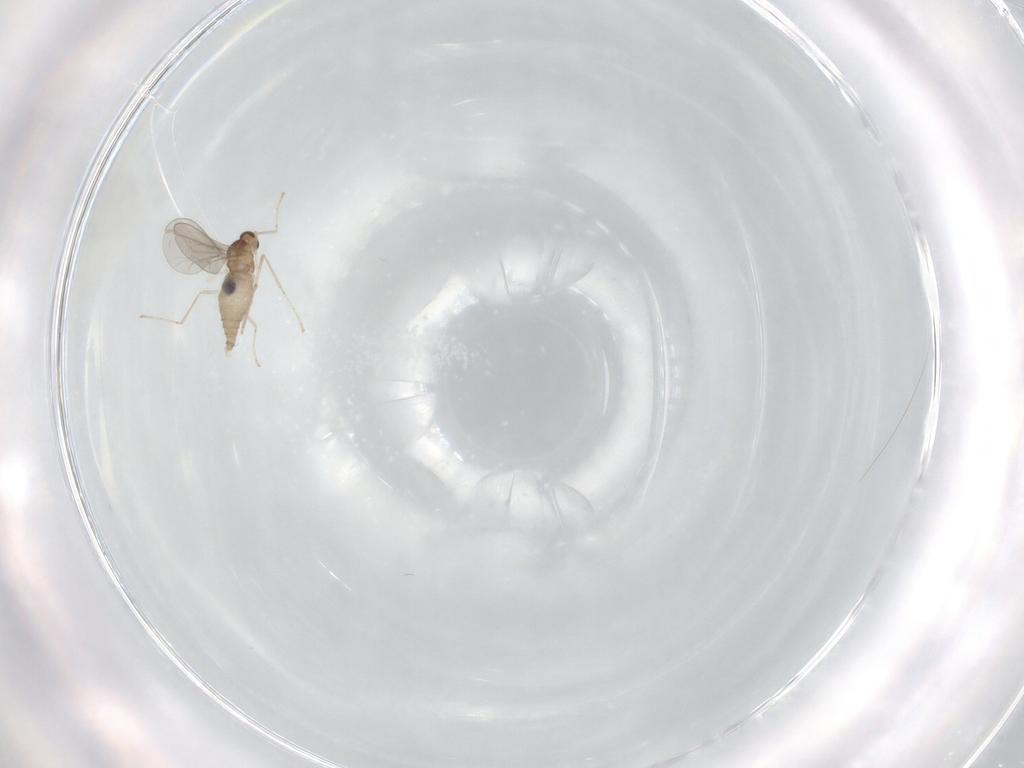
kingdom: Animalia
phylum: Arthropoda
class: Insecta
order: Diptera
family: Cecidomyiidae
